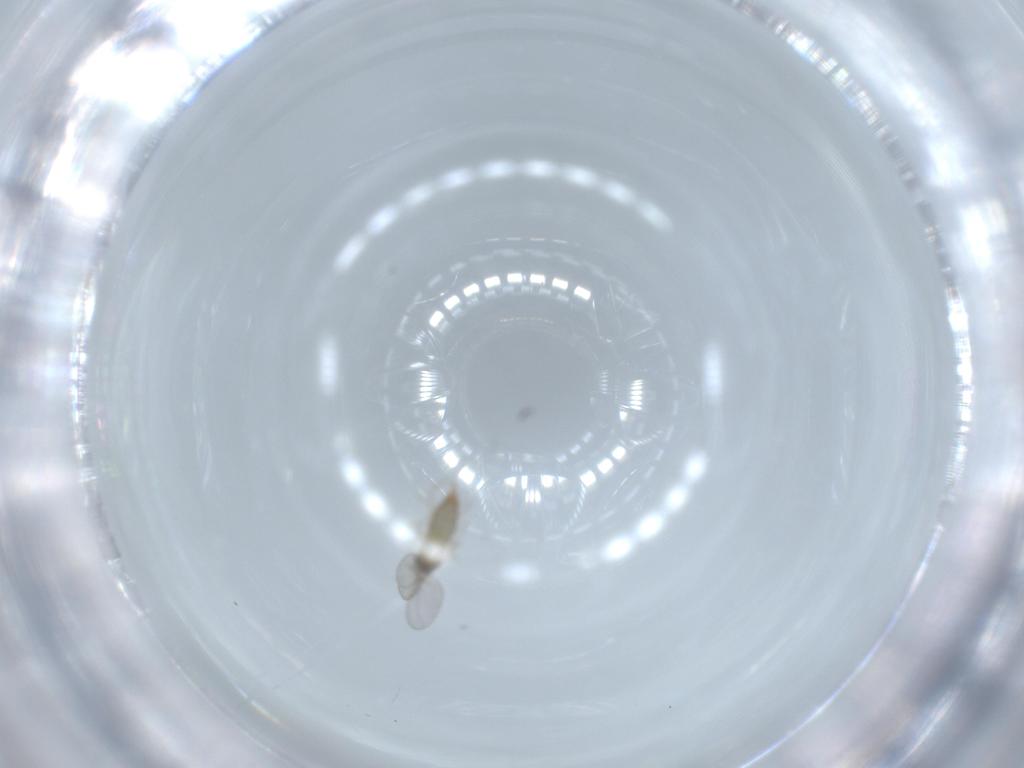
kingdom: Animalia
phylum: Arthropoda
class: Insecta
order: Diptera
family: Cecidomyiidae
